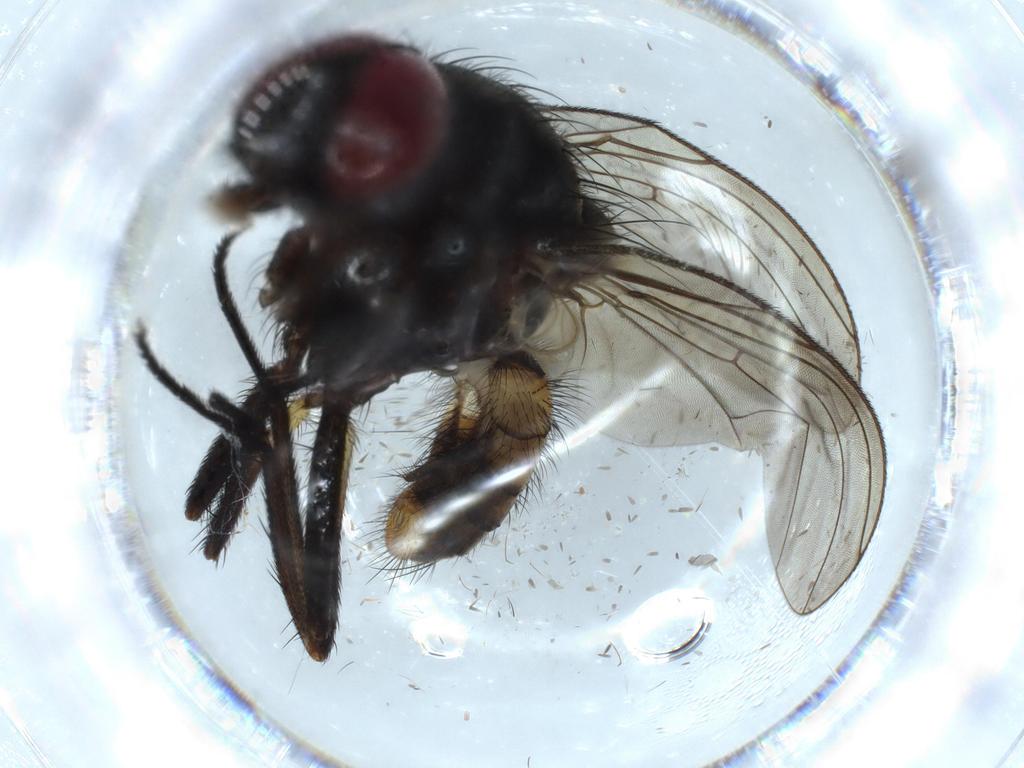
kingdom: Animalia
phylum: Arthropoda
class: Insecta
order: Diptera
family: Anthomyiidae
